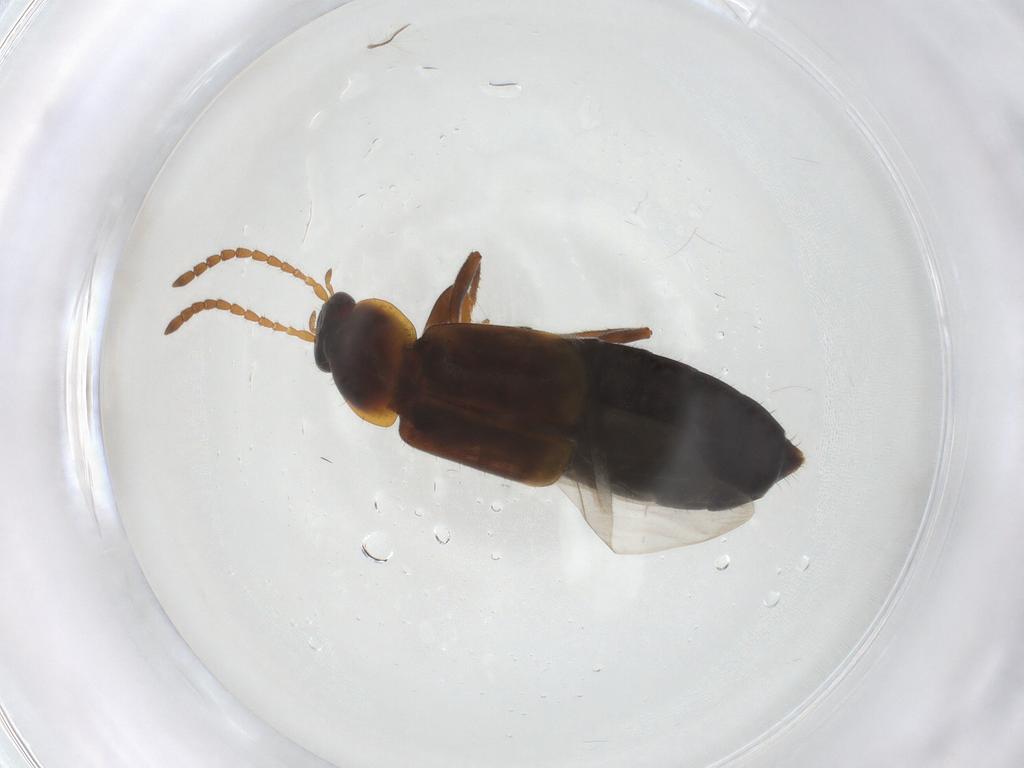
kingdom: Animalia
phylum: Arthropoda
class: Insecta
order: Coleoptera
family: Staphylinidae
